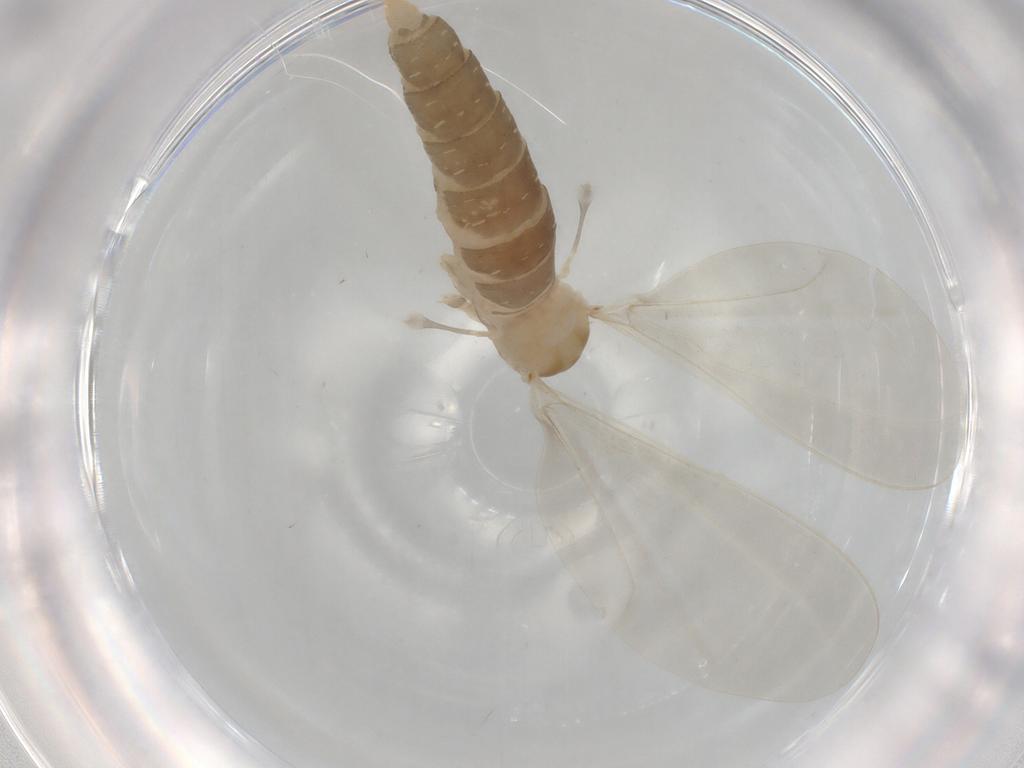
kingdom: Animalia
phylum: Arthropoda
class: Insecta
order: Diptera
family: Cecidomyiidae
